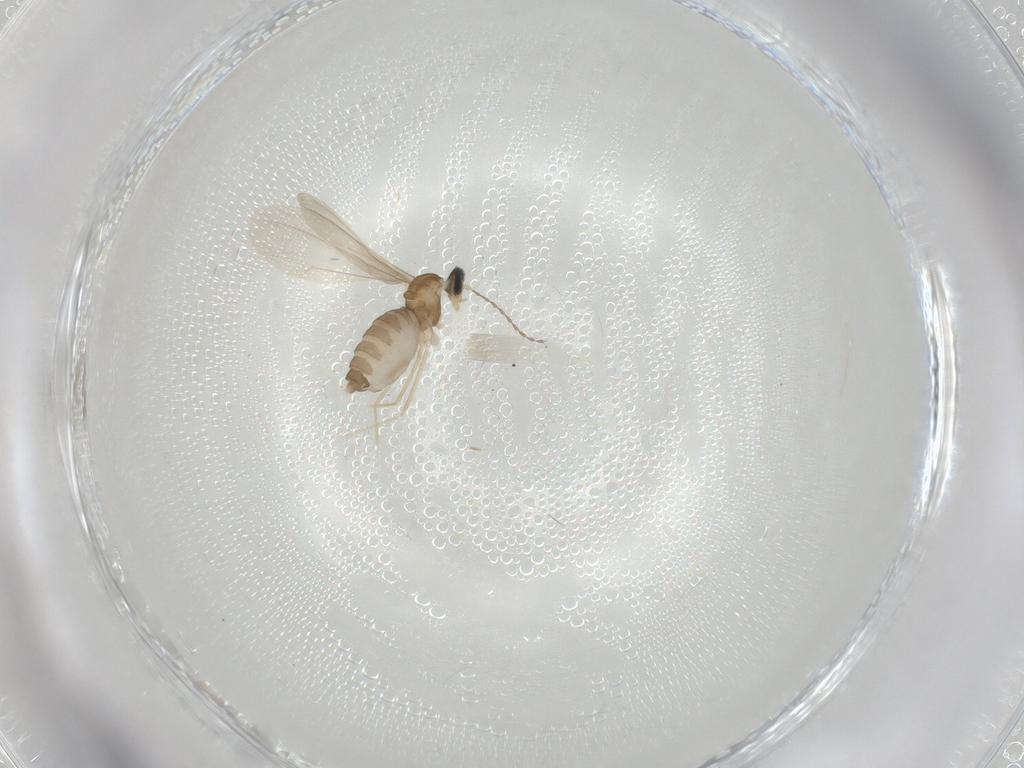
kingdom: Animalia
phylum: Arthropoda
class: Insecta
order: Diptera
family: Cecidomyiidae
